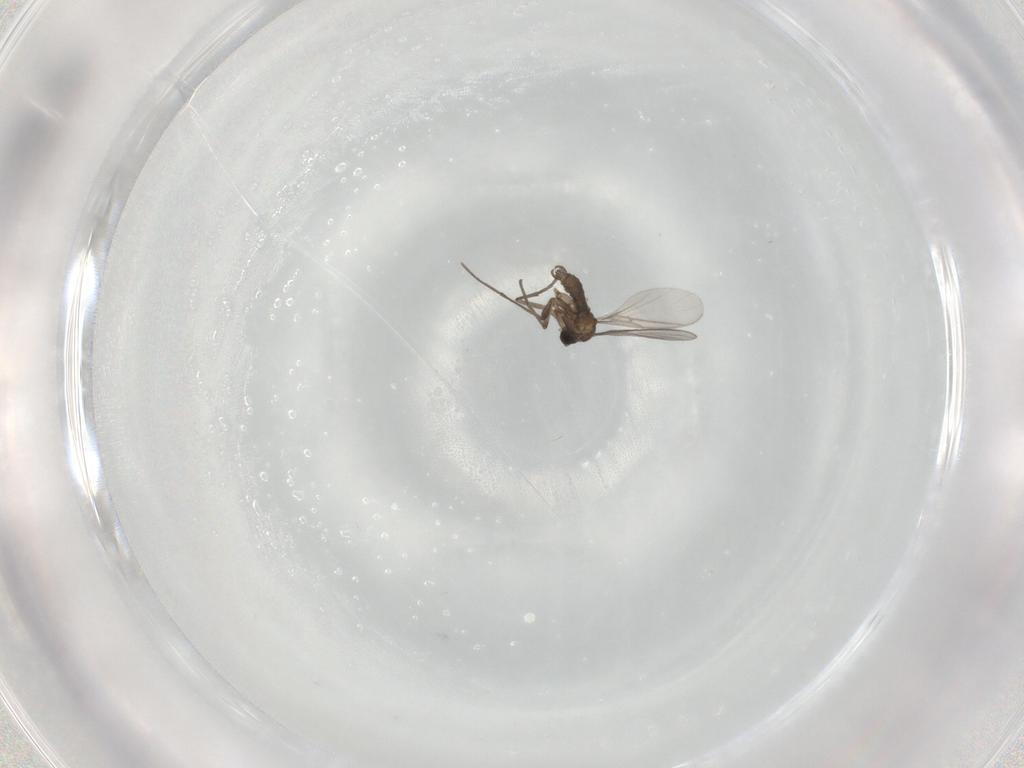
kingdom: Animalia
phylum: Arthropoda
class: Insecta
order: Diptera
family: Sciaridae
